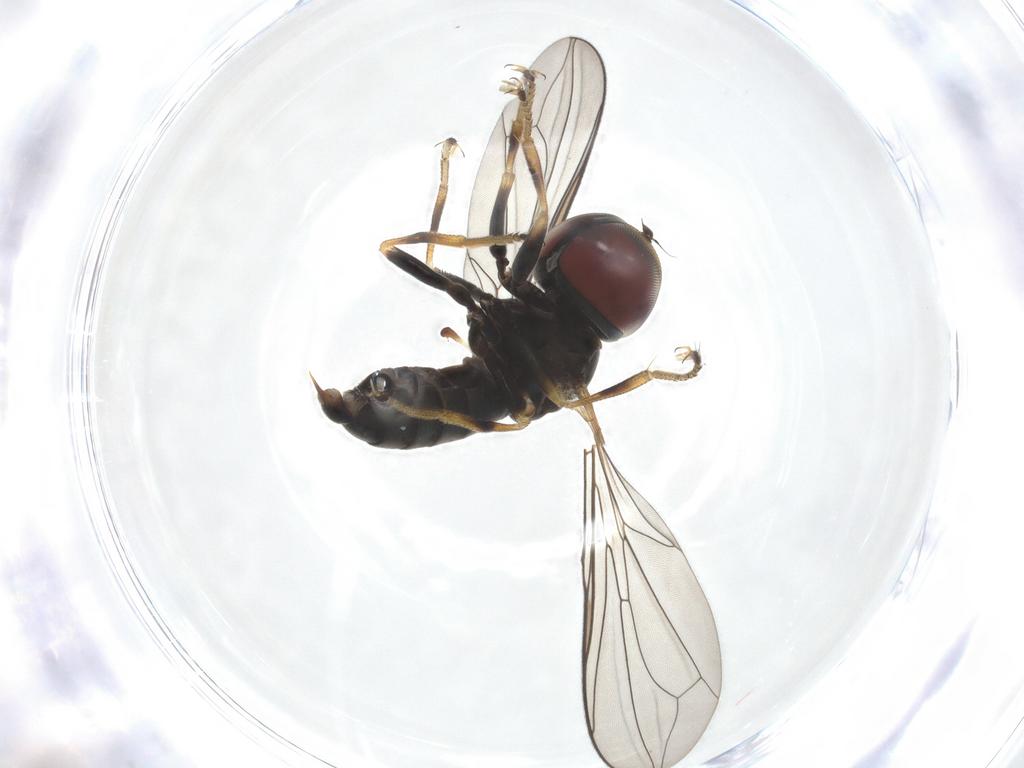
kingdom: Animalia
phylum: Arthropoda
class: Insecta
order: Diptera
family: Pipunculidae
